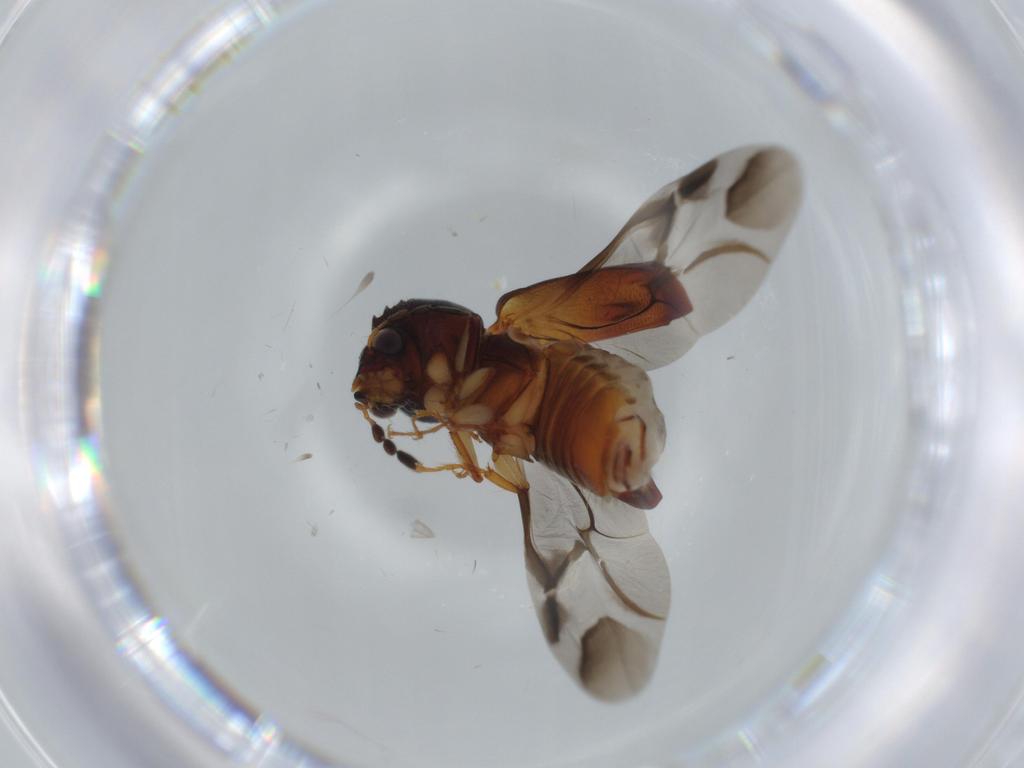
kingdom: Animalia
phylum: Arthropoda
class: Insecta
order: Coleoptera
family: Bostrichidae
